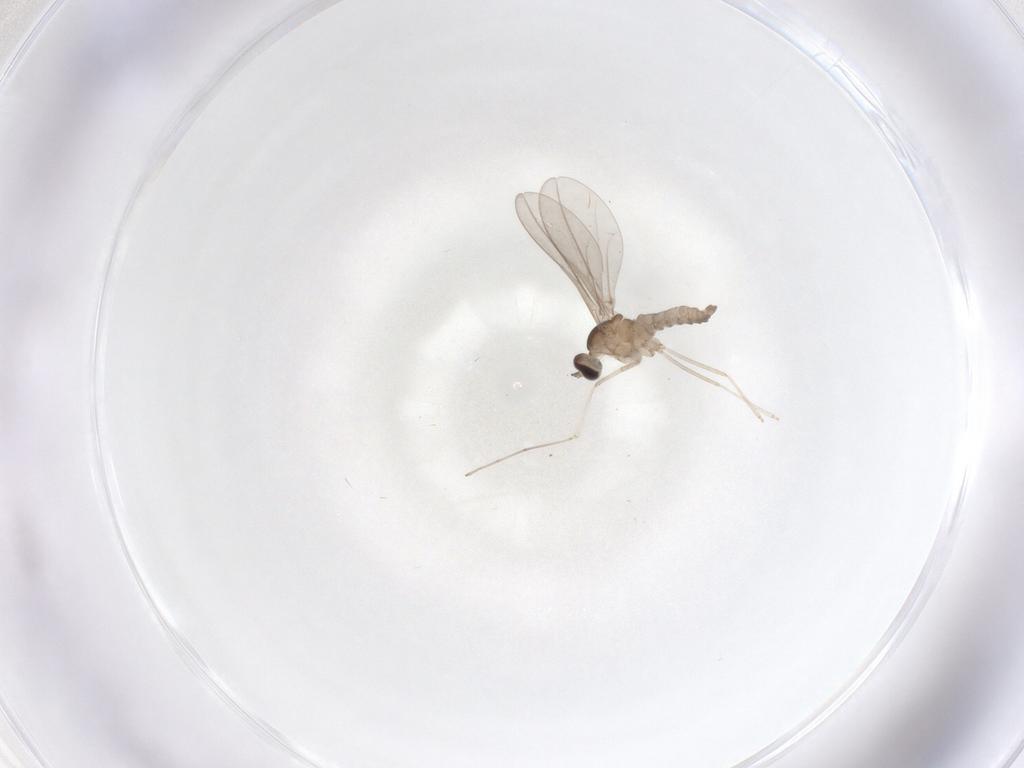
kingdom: Animalia
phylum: Arthropoda
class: Insecta
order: Diptera
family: Cecidomyiidae
